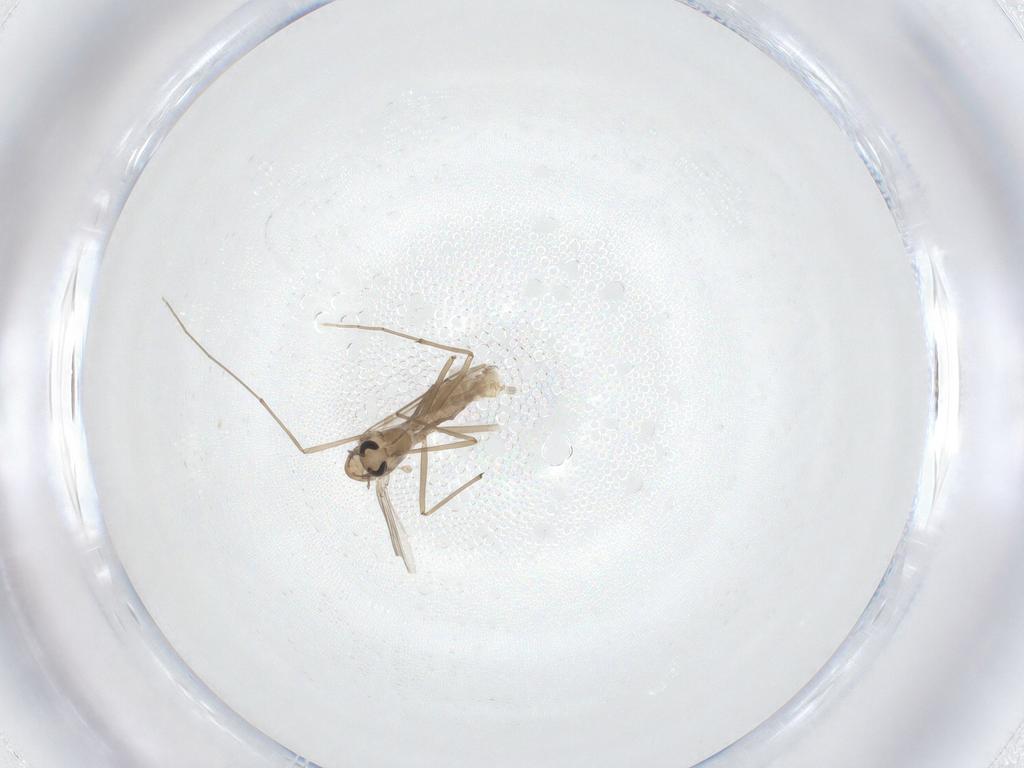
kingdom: Animalia
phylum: Arthropoda
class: Insecta
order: Diptera
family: Chironomidae
